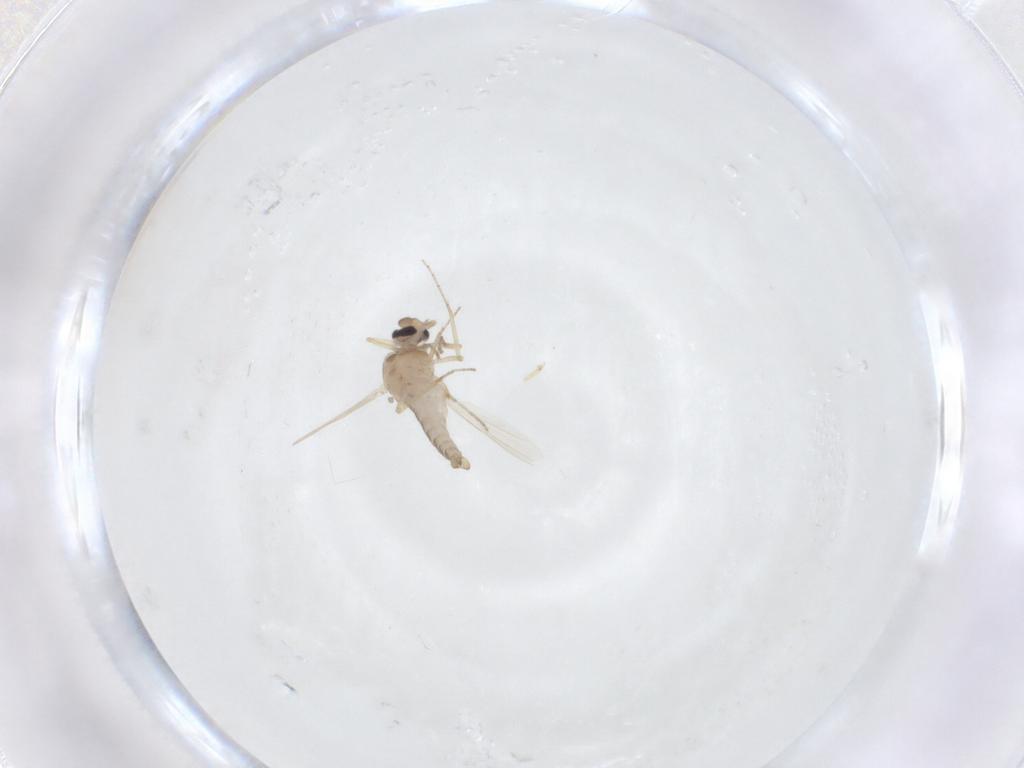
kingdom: Animalia
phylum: Arthropoda
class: Insecta
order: Diptera
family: Ceratopogonidae
